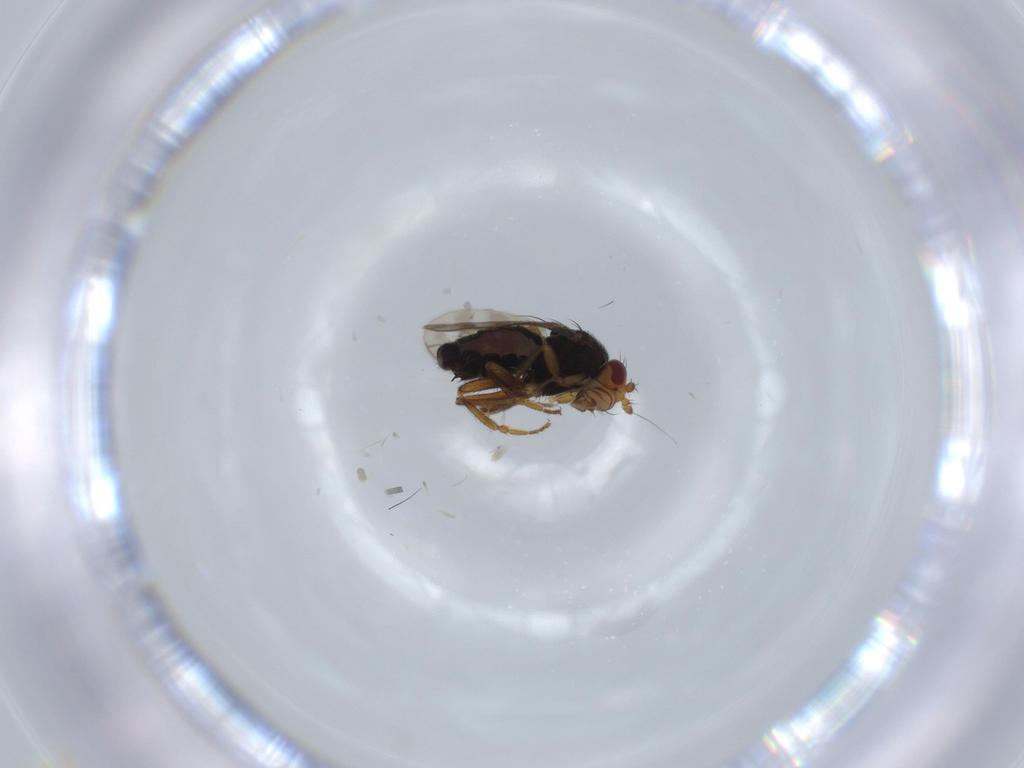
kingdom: Animalia
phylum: Arthropoda
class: Insecta
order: Diptera
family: Sphaeroceridae
